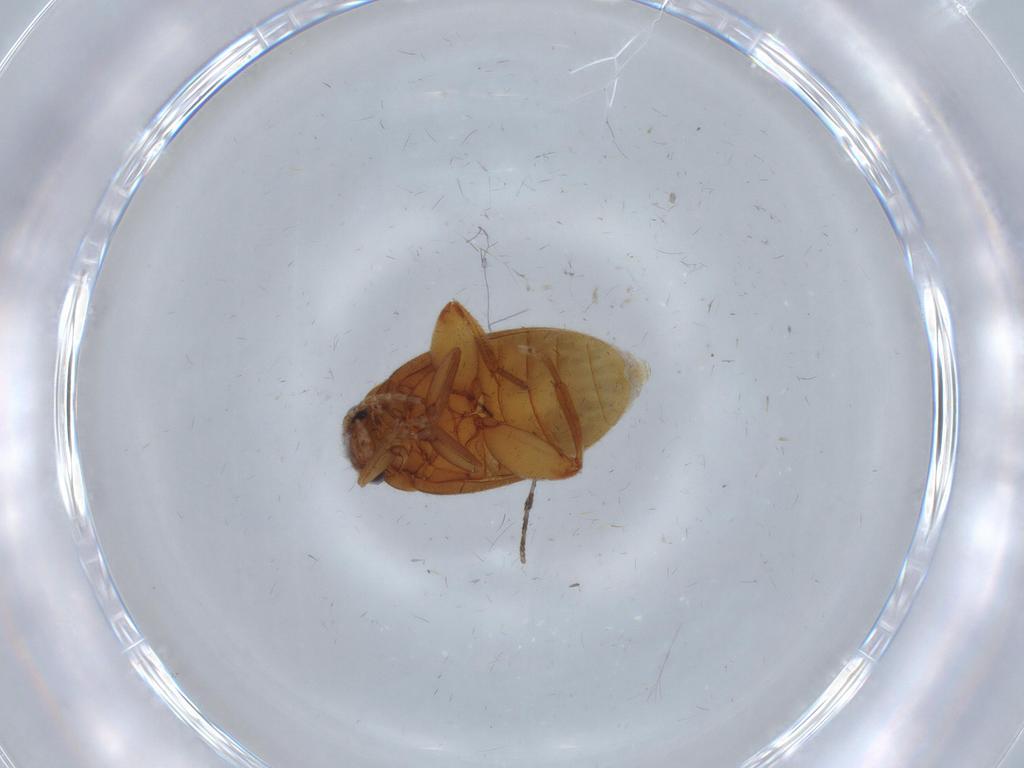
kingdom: Animalia
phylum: Arthropoda
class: Insecta
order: Coleoptera
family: Scirtidae
